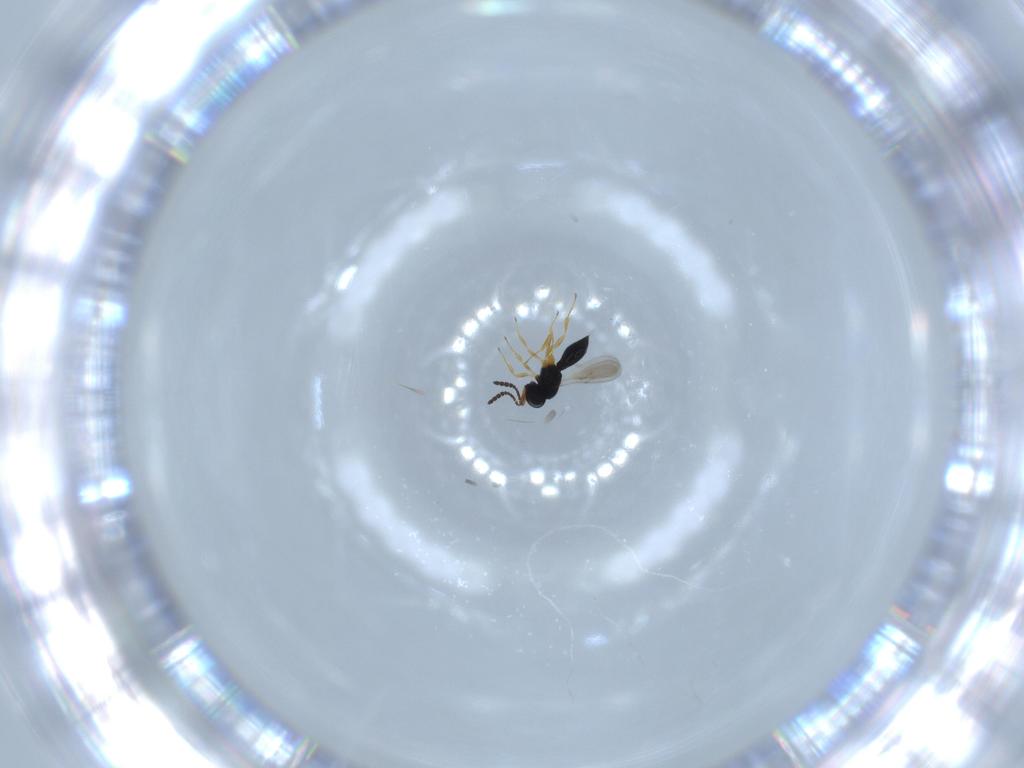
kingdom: Animalia
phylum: Arthropoda
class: Insecta
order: Hymenoptera
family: Scelionidae
